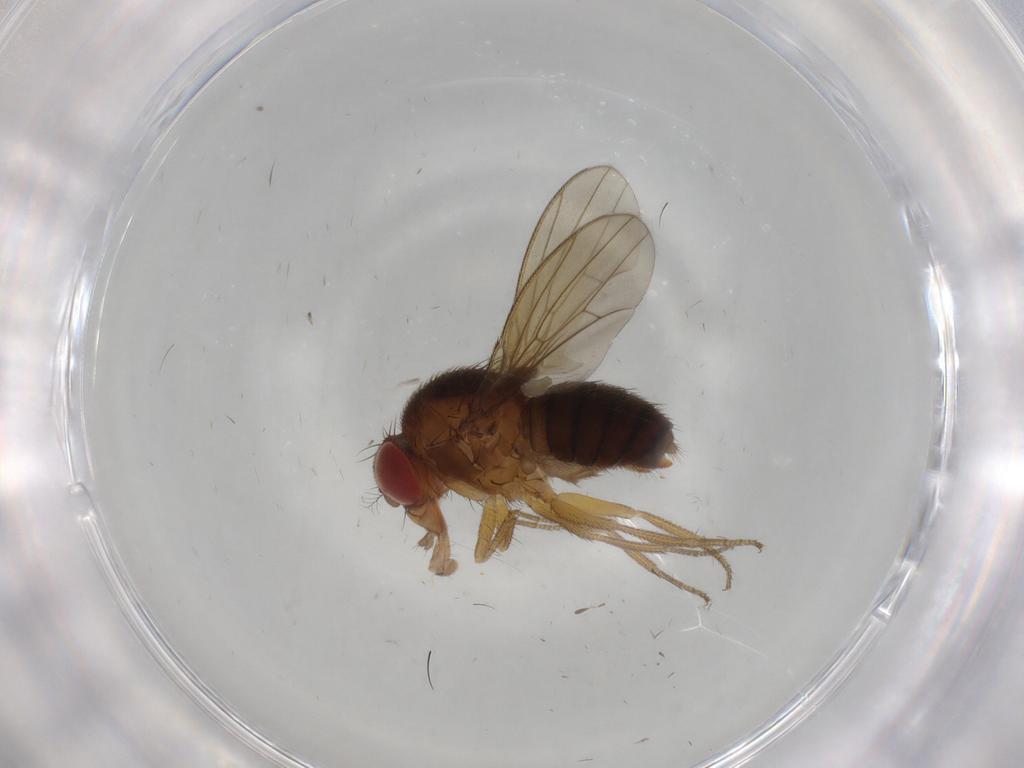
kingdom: Animalia
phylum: Arthropoda
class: Insecta
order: Diptera
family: Drosophilidae
